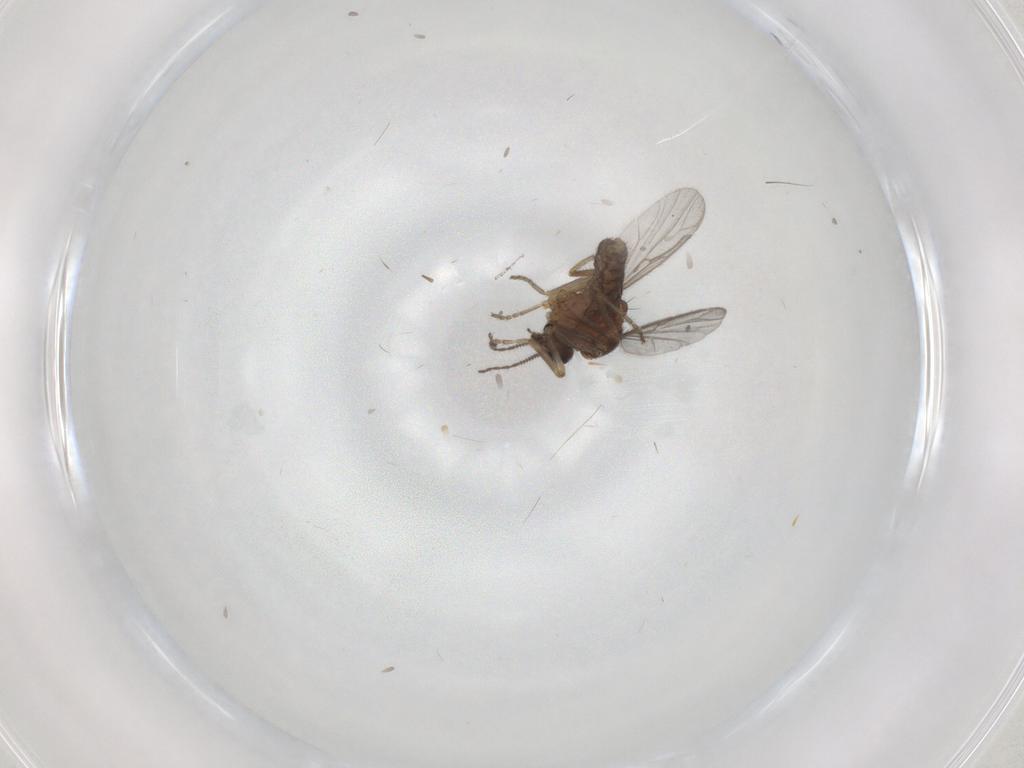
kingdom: Animalia
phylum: Arthropoda
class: Insecta
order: Diptera
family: Ceratopogonidae
